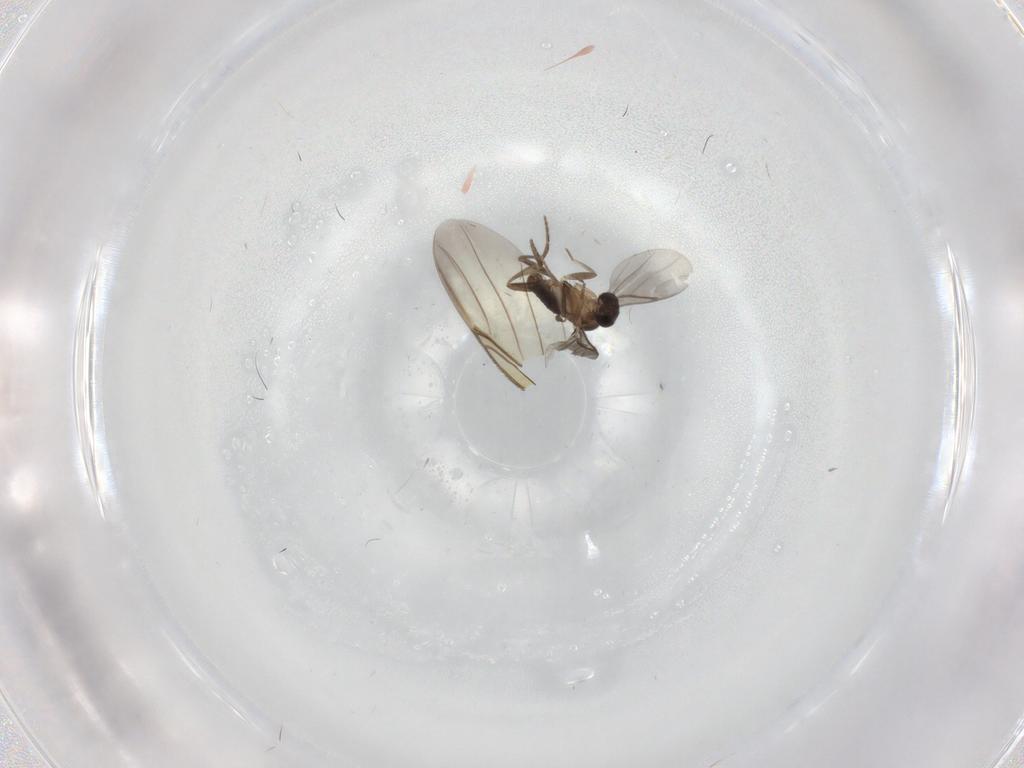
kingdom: Animalia
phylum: Arthropoda
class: Insecta
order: Diptera
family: Phoridae
